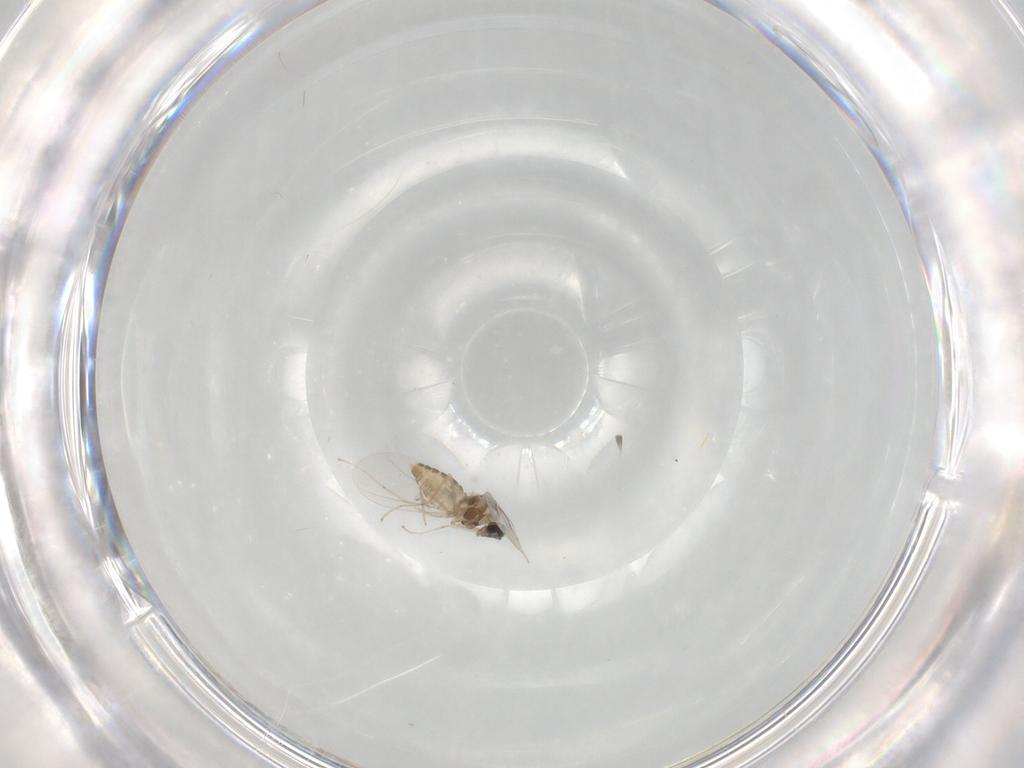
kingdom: Animalia
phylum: Arthropoda
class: Insecta
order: Diptera
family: Cecidomyiidae
